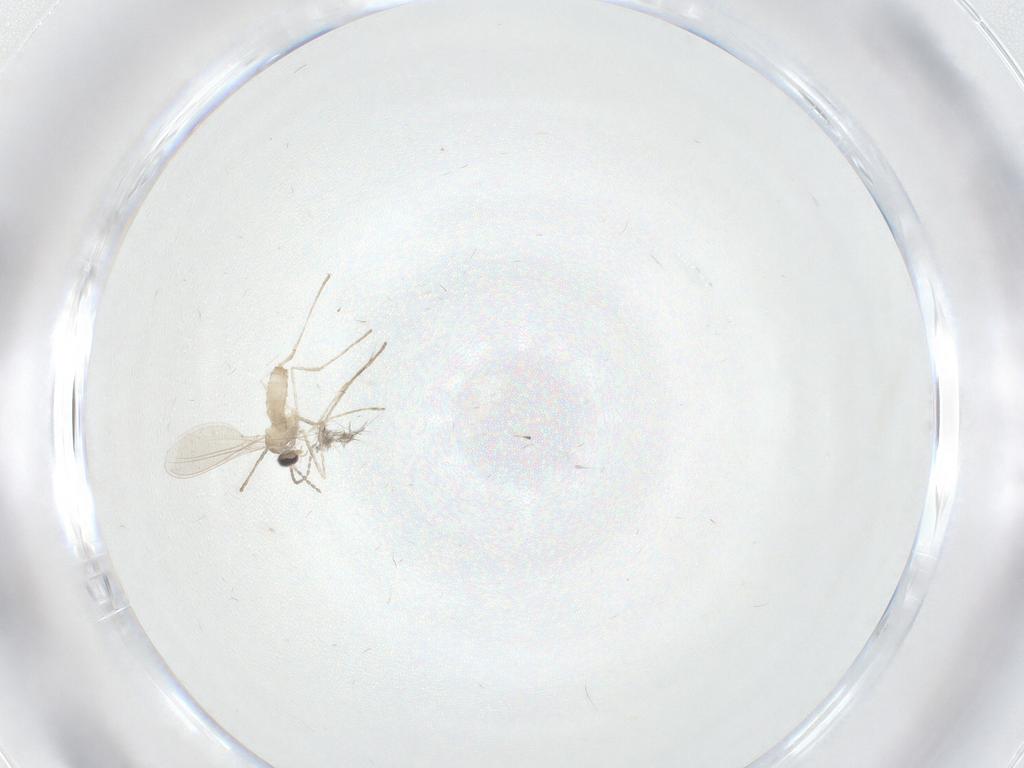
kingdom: Animalia
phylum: Arthropoda
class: Insecta
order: Diptera
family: Cecidomyiidae
